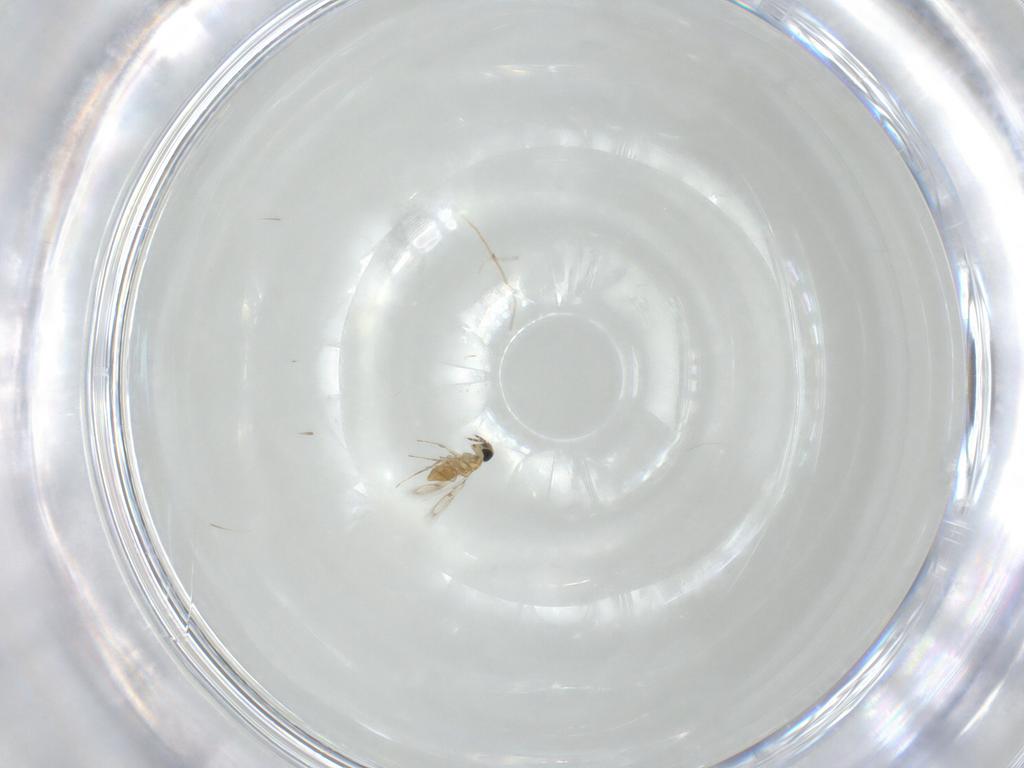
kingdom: Animalia
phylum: Arthropoda
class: Insecta
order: Hymenoptera
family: Trichogrammatidae
